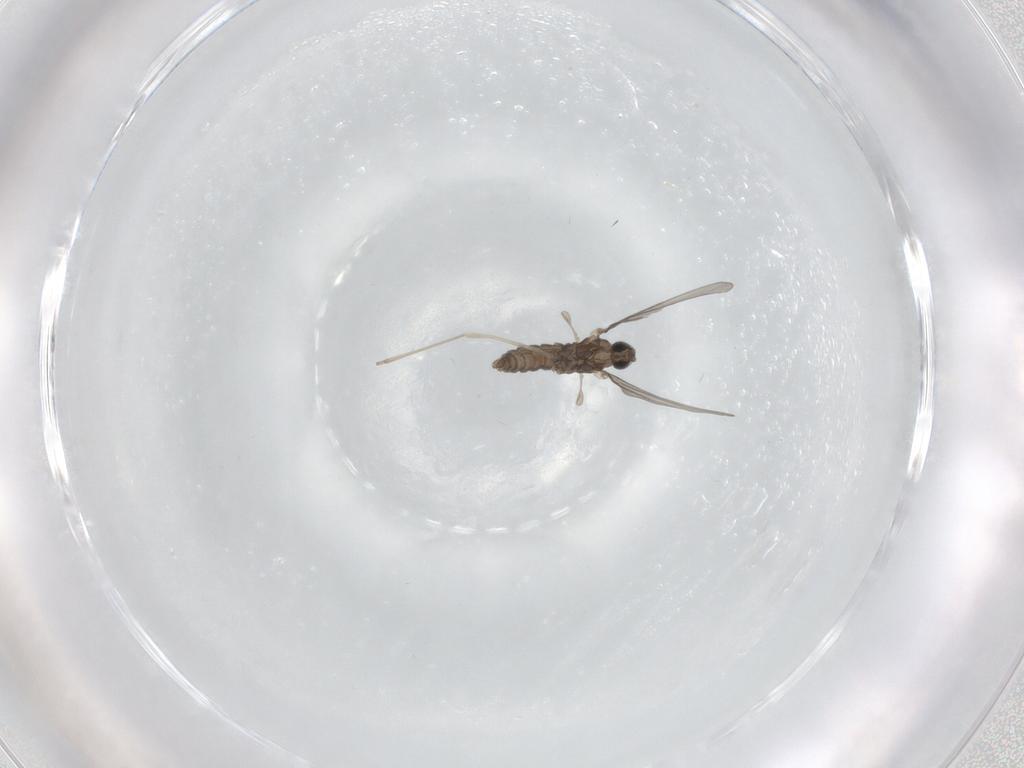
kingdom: Animalia
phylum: Arthropoda
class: Insecta
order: Diptera
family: Cecidomyiidae
